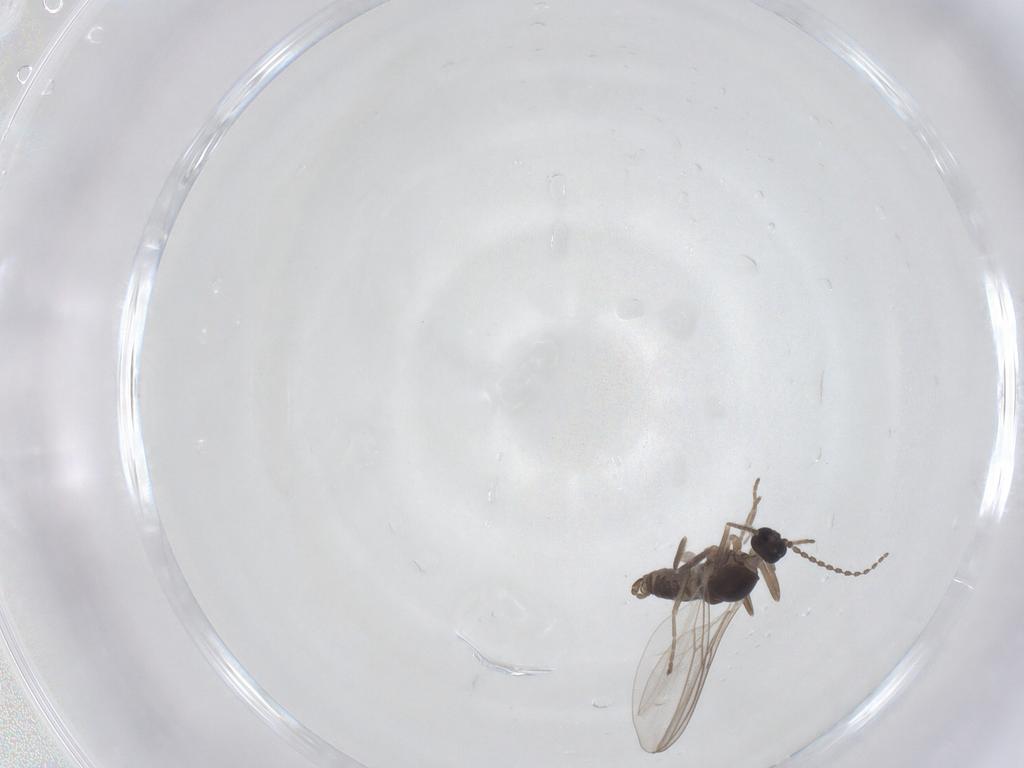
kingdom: Animalia
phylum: Arthropoda
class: Insecta
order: Diptera
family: Cecidomyiidae
